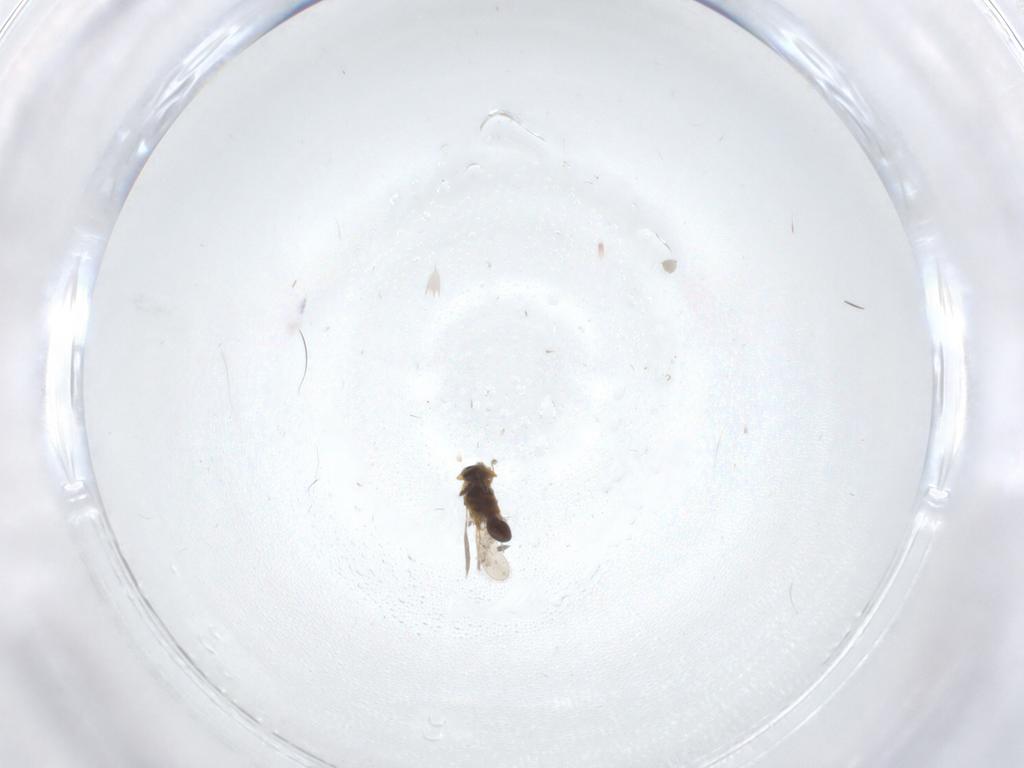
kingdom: Animalia
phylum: Arthropoda
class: Insecta
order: Hymenoptera
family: Platygastridae
